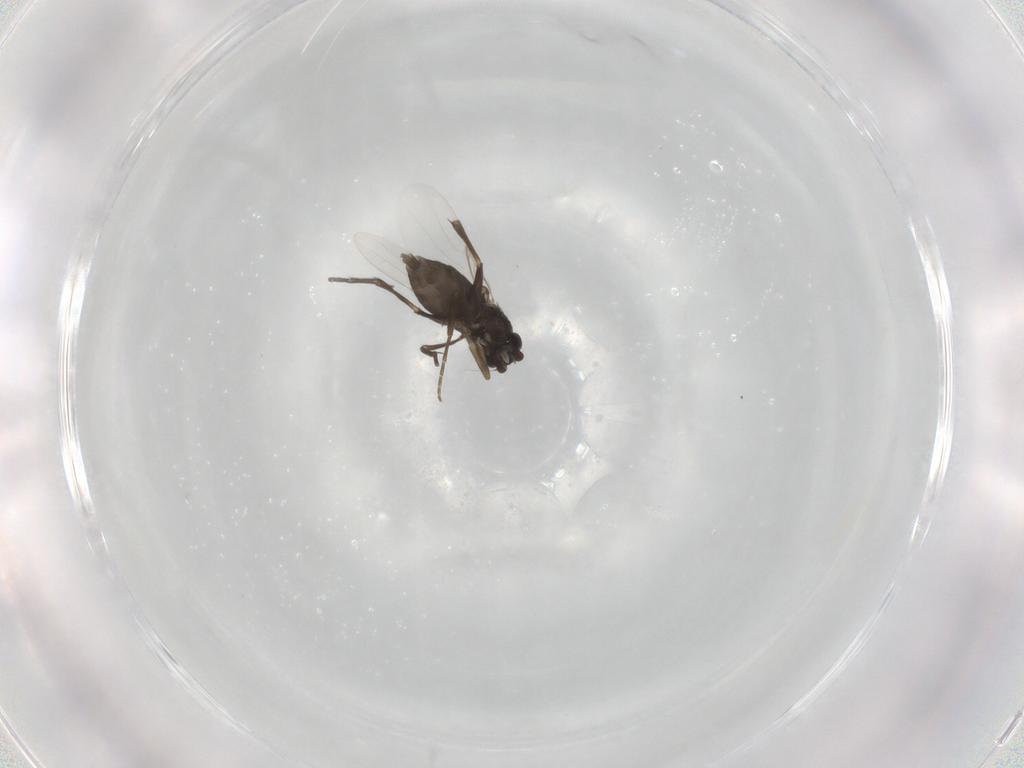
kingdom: Animalia
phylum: Arthropoda
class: Insecta
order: Diptera
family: Phoridae
